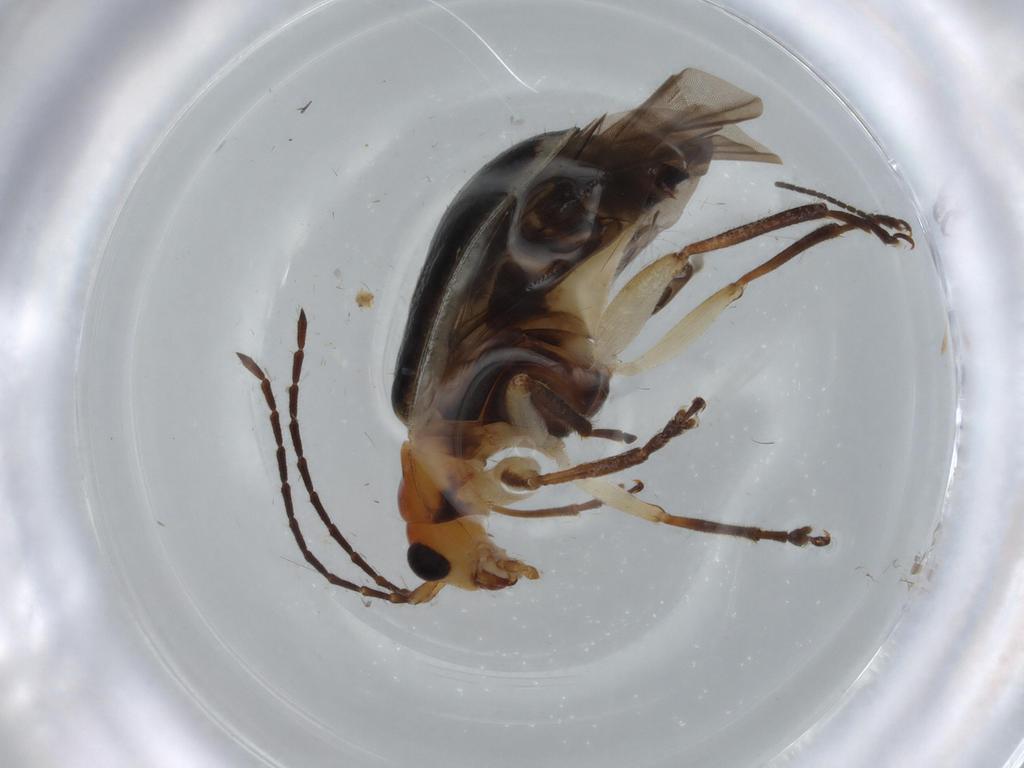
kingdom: Animalia
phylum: Arthropoda
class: Insecta
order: Coleoptera
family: Chrysomelidae
